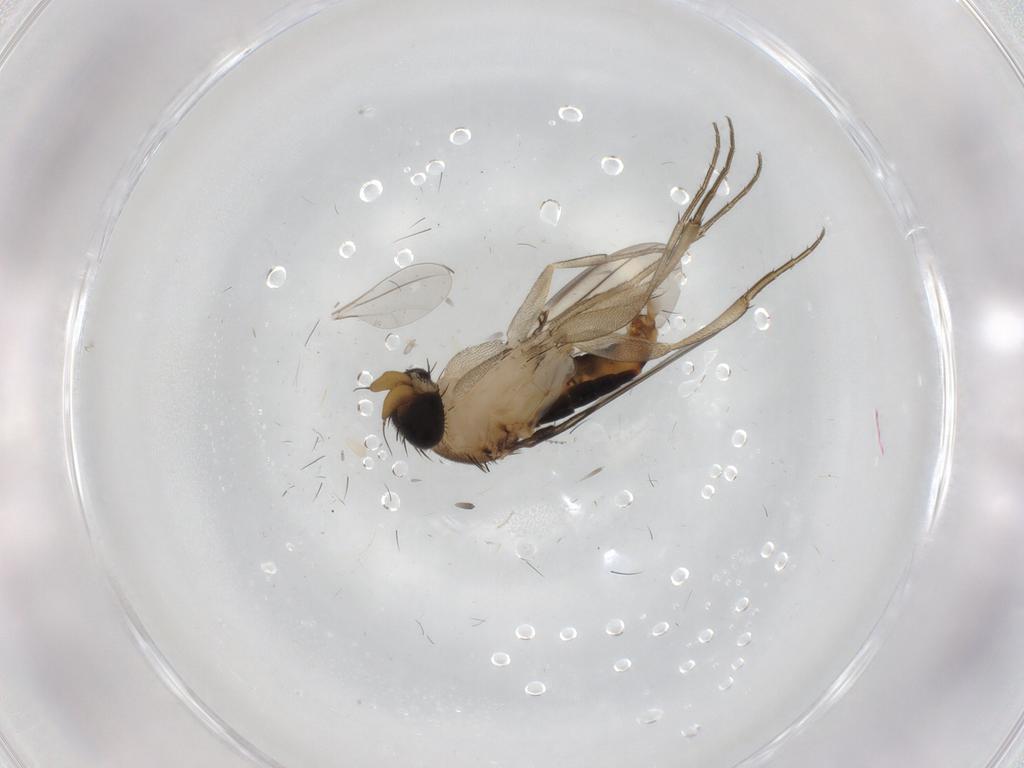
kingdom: Animalia
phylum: Arthropoda
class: Insecta
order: Diptera
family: Phoridae
